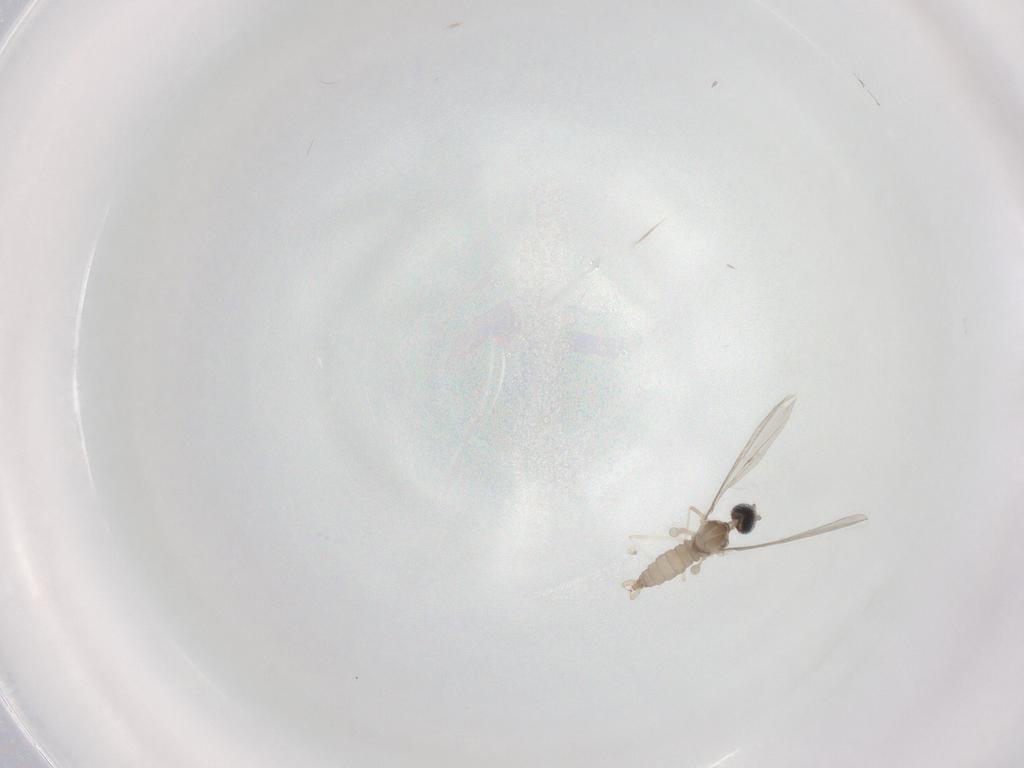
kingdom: Animalia
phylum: Arthropoda
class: Insecta
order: Diptera
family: Cecidomyiidae
